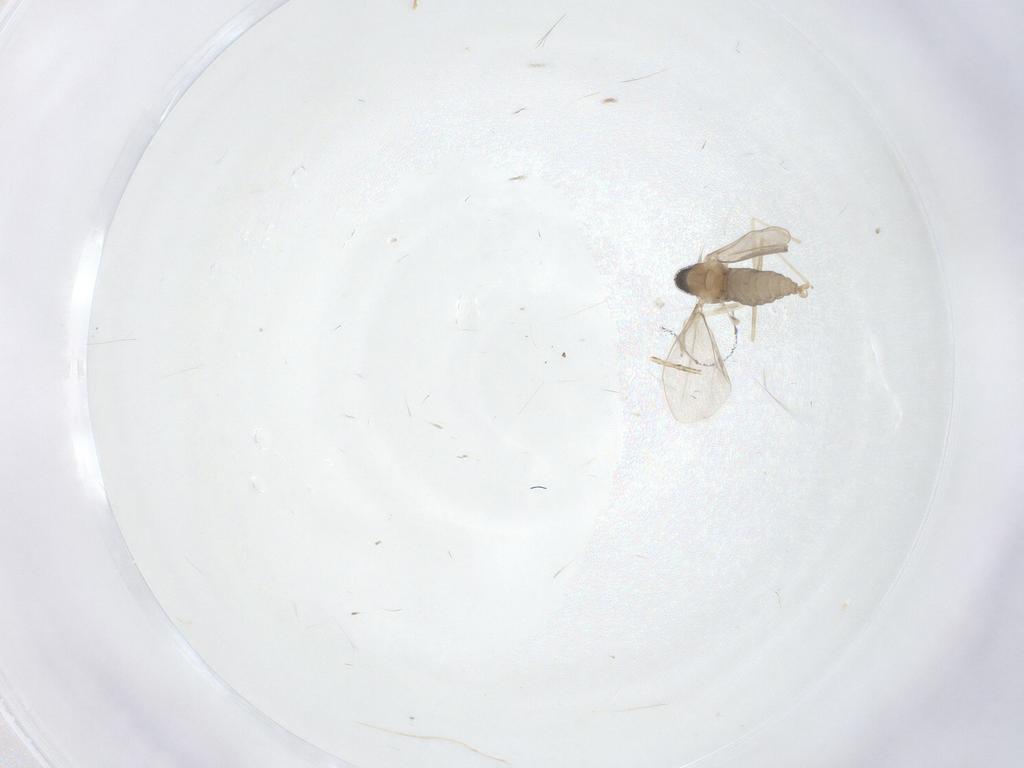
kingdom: Animalia
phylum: Arthropoda
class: Insecta
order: Diptera
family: Cecidomyiidae
